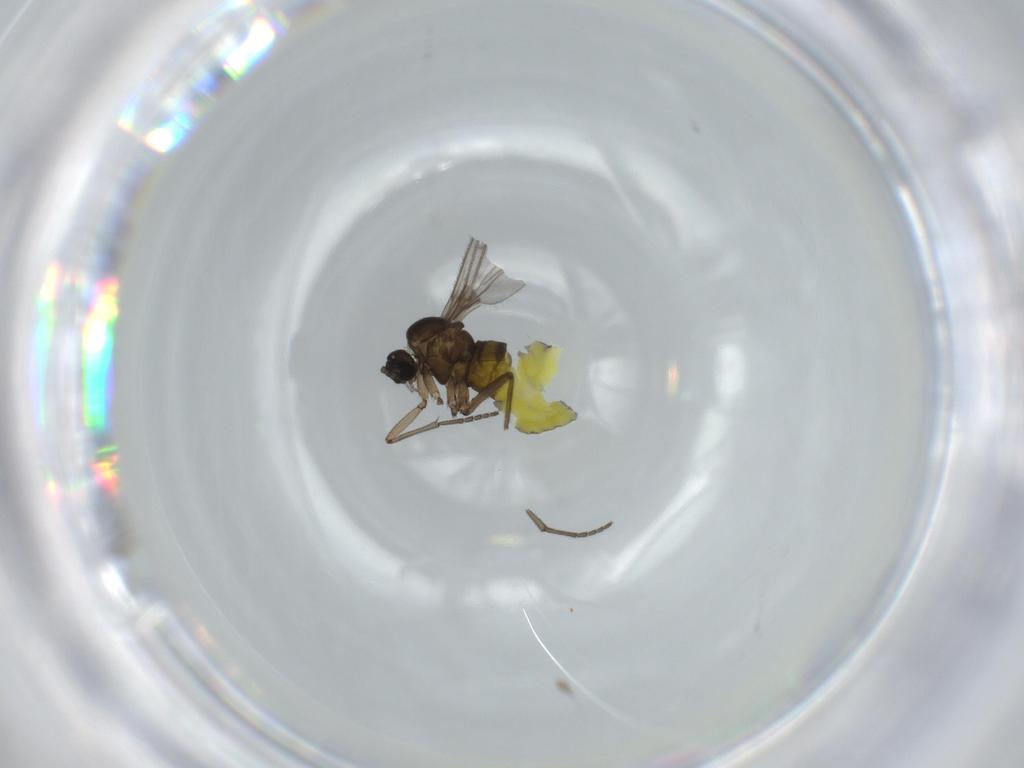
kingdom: Animalia
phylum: Arthropoda
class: Insecta
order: Diptera
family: Sciaridae
